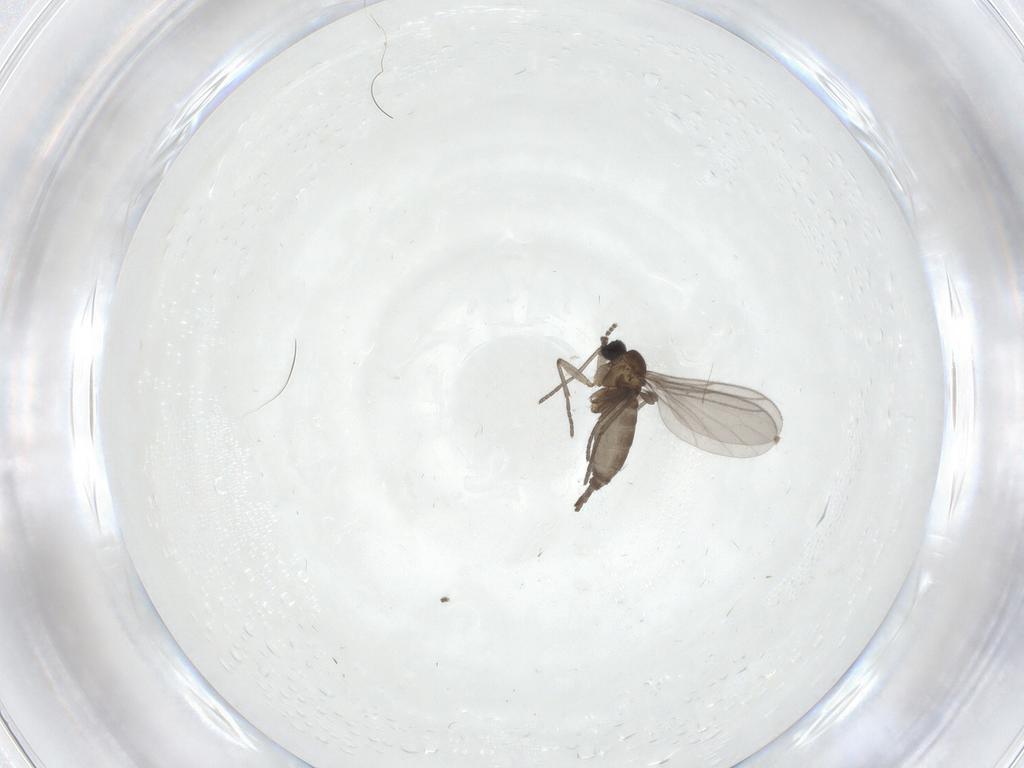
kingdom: Animalia
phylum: Arthropoda
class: Insecta
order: Diptera
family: Sciaridae
